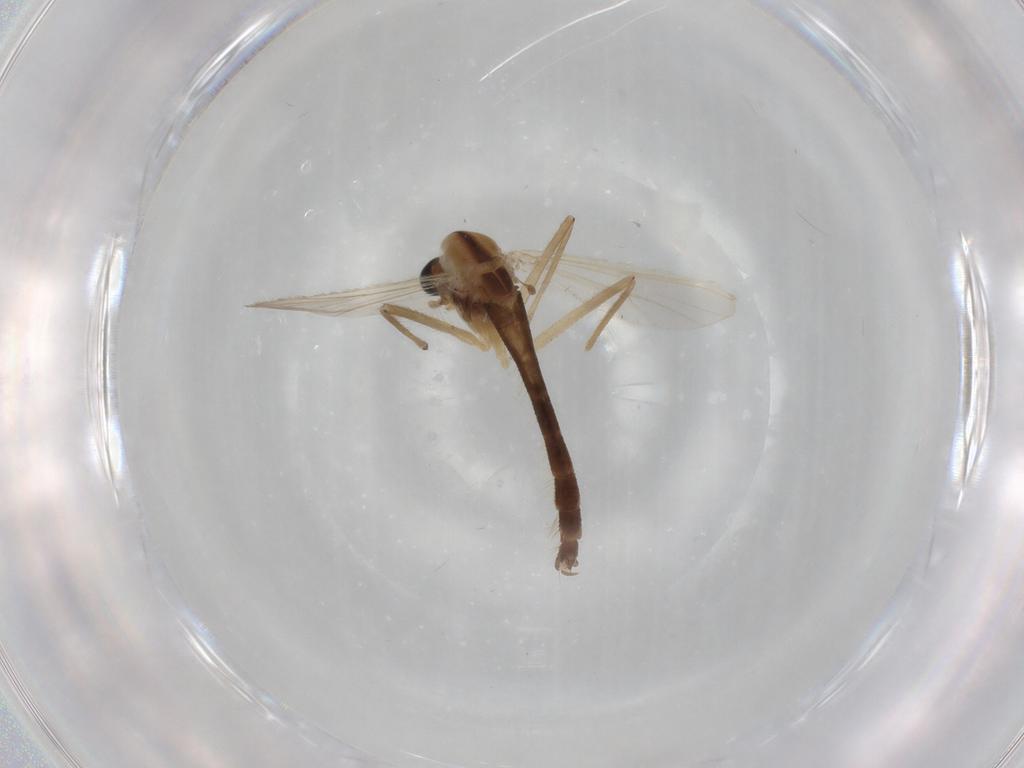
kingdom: Animalia
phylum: Arthropoda
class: Insecta
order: Diptera
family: Chironomidae
